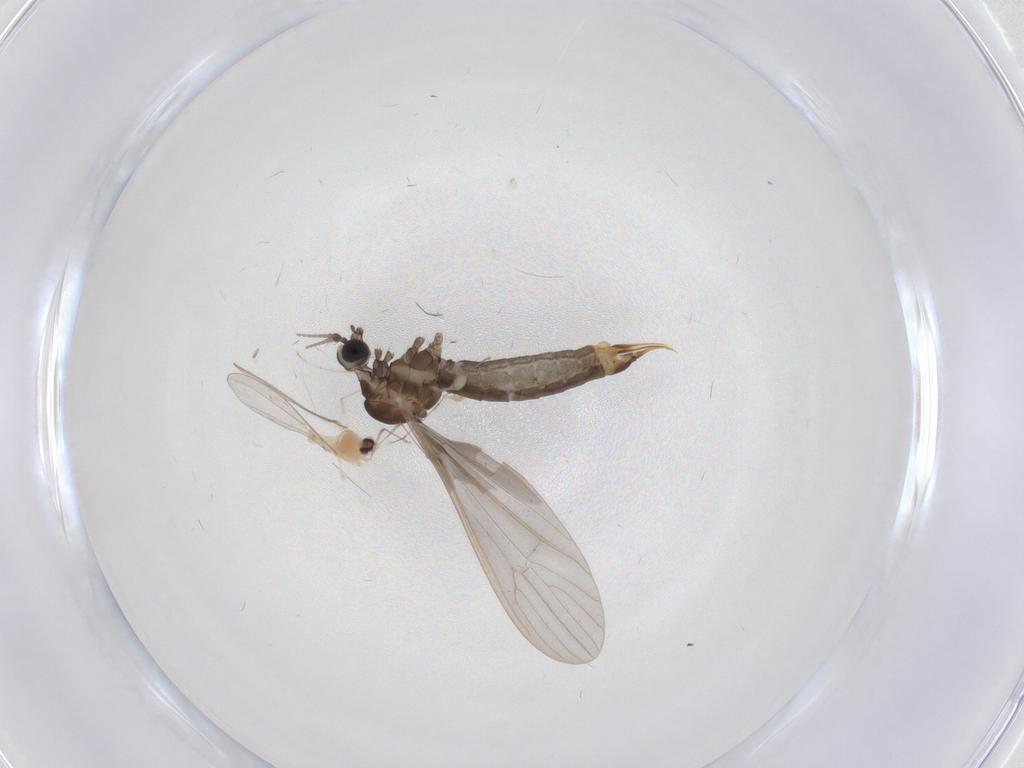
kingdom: Animalia
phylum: Arthropoda
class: Insecta
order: Diptera
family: Limoniidae
